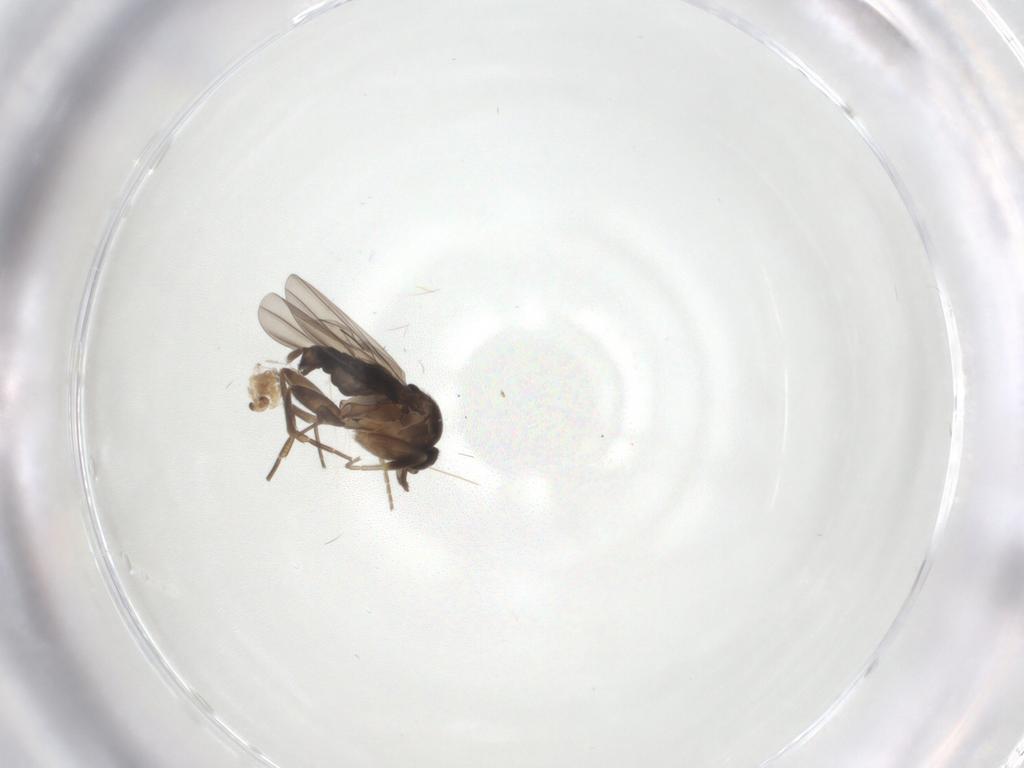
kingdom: Animalia
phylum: Arthropoda
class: Insecta
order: Diptera
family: Phoridae
